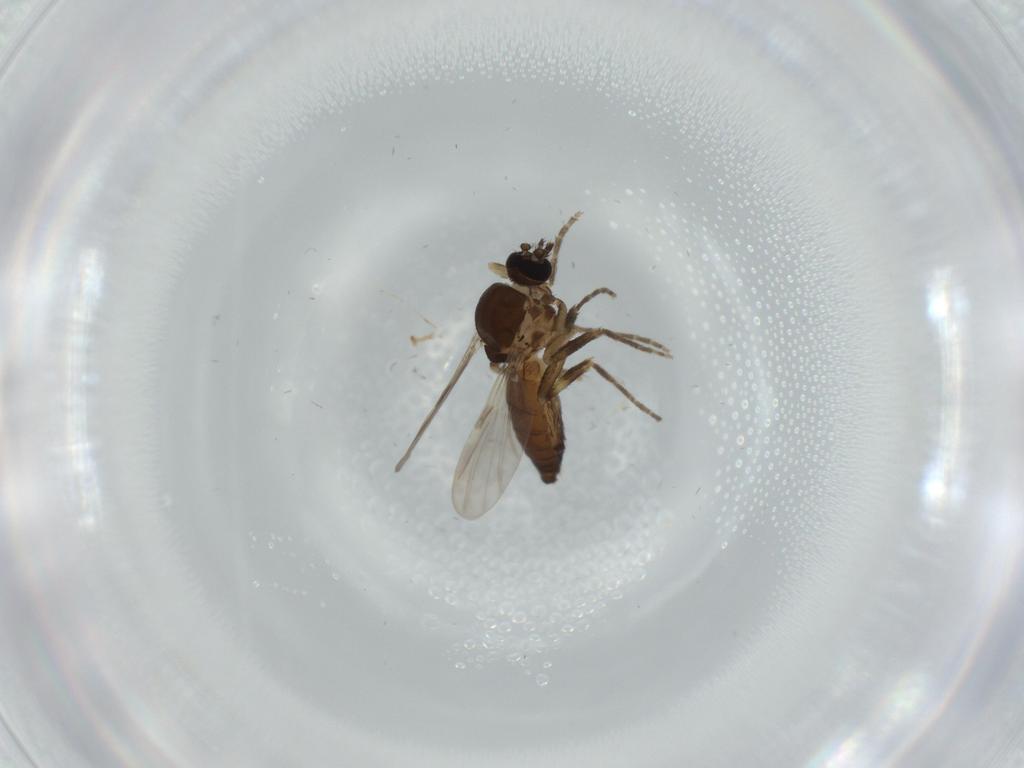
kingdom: Animalia
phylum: Arthropoda
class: Insecta
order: Diptera
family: Ceratopogonidae
